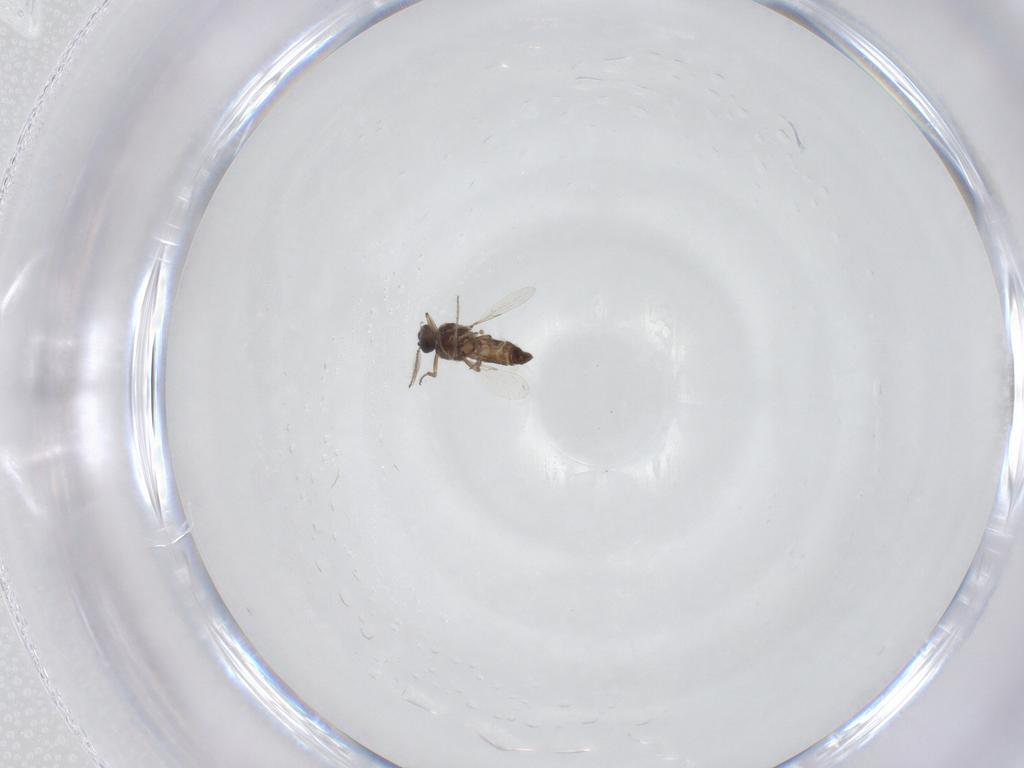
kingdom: Animalia
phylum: Arthropoda
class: Insecta
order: Diptera
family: Ceratopogonidae
